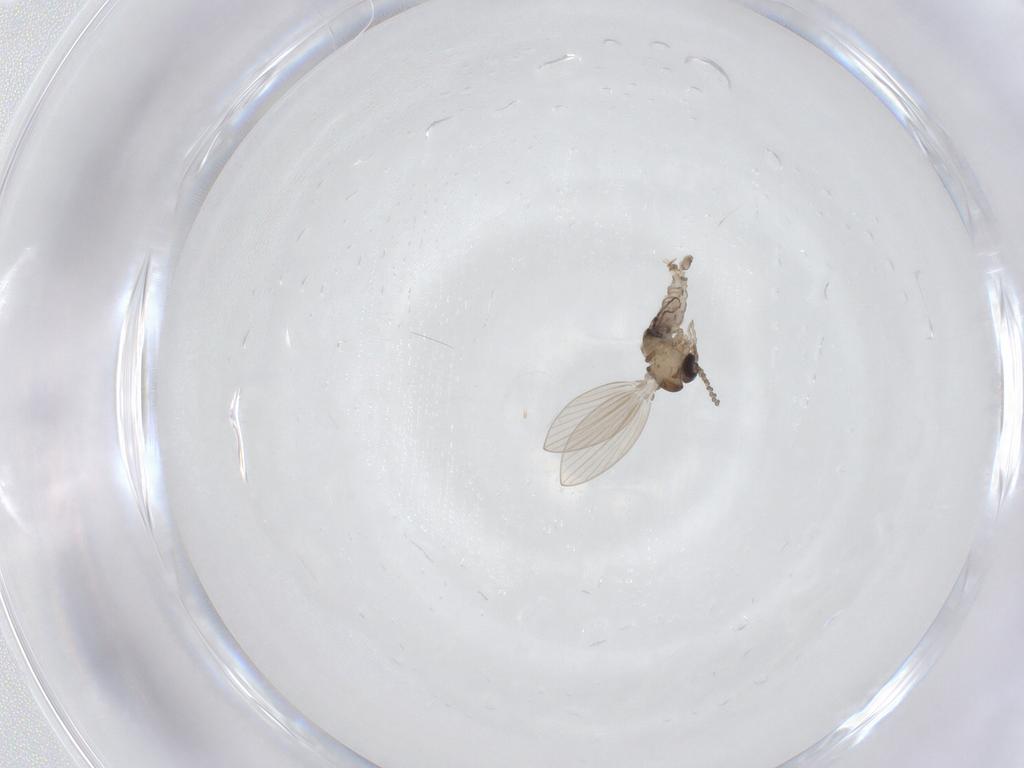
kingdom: Animalia
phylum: Arthropoda
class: Insecta
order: Diptera
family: Psychodidae
